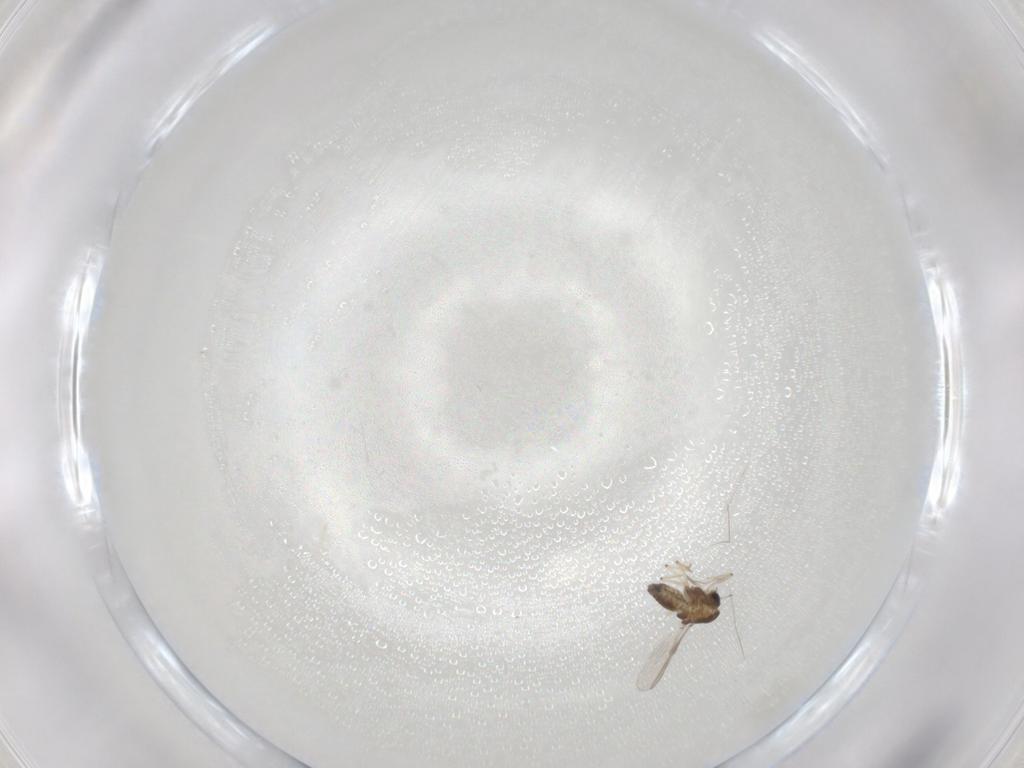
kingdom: Animalia
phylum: Arthropoda
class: Insecta
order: Diptera
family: Chironomidae
